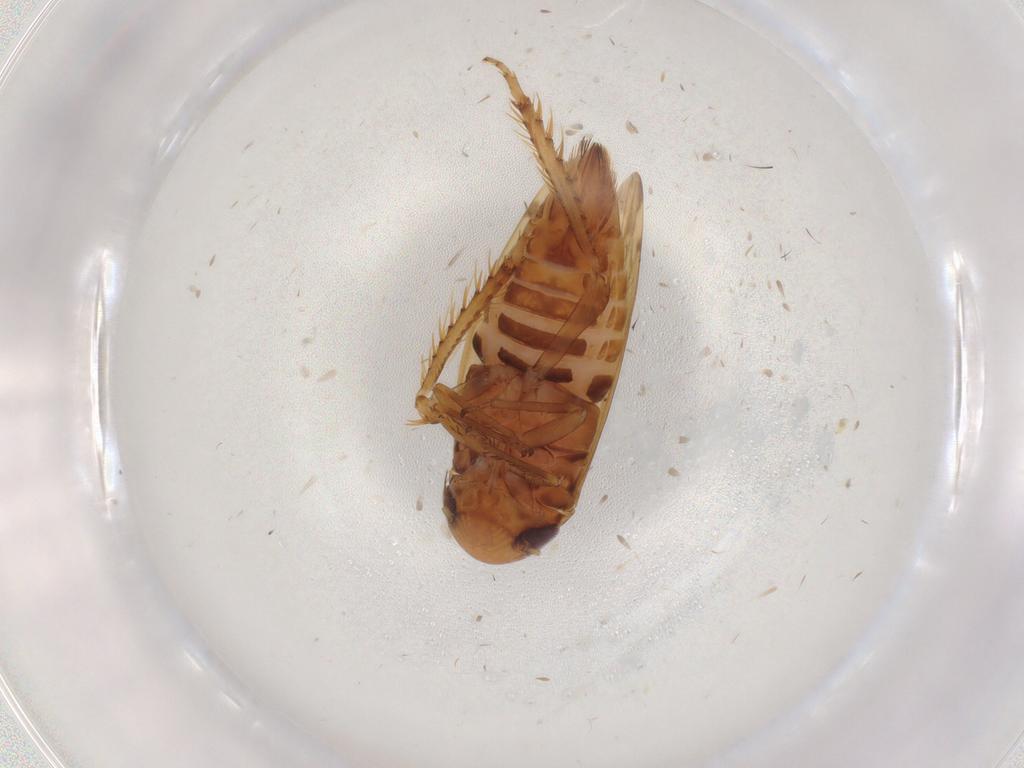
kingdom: Animalia
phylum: Arthropoda
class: Insecta
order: Hemiptera
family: Cicadellidae
